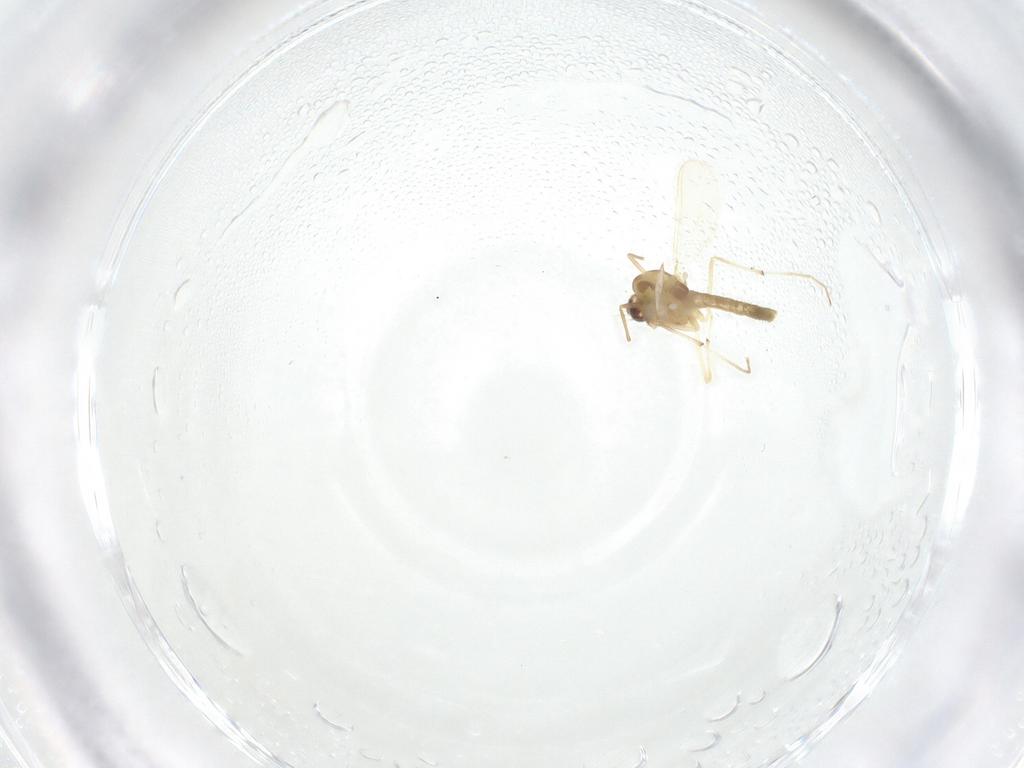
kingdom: Animalia
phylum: Arthropoda
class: Insecta
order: Diptera
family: Chironomidae
